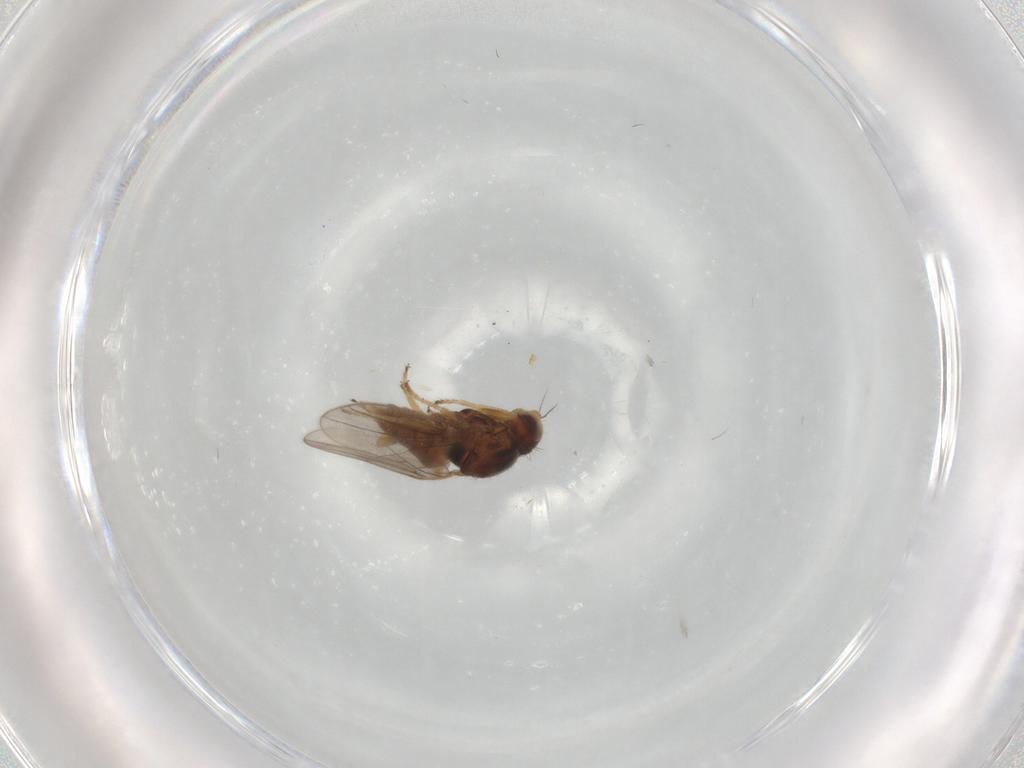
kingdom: Animalia
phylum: Arthropoda
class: Insecta
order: Diptera
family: Chloropidae
